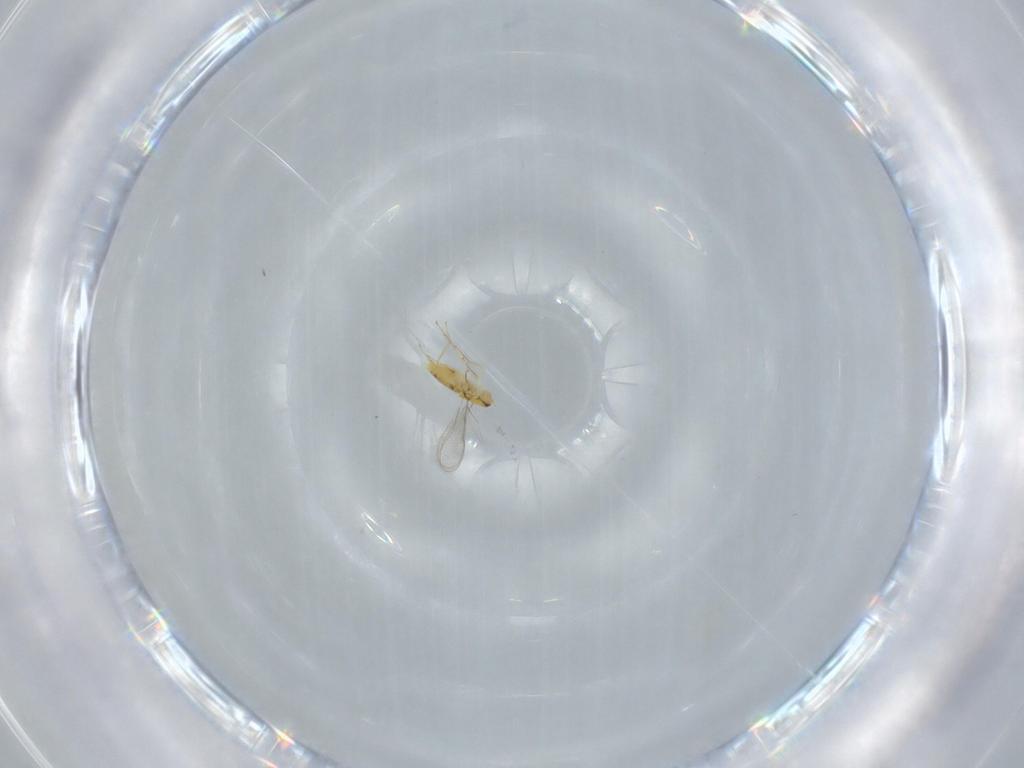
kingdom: Animalia
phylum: Arthropoda
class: Insecta
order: Hymenoptera
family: Aphelinidae
